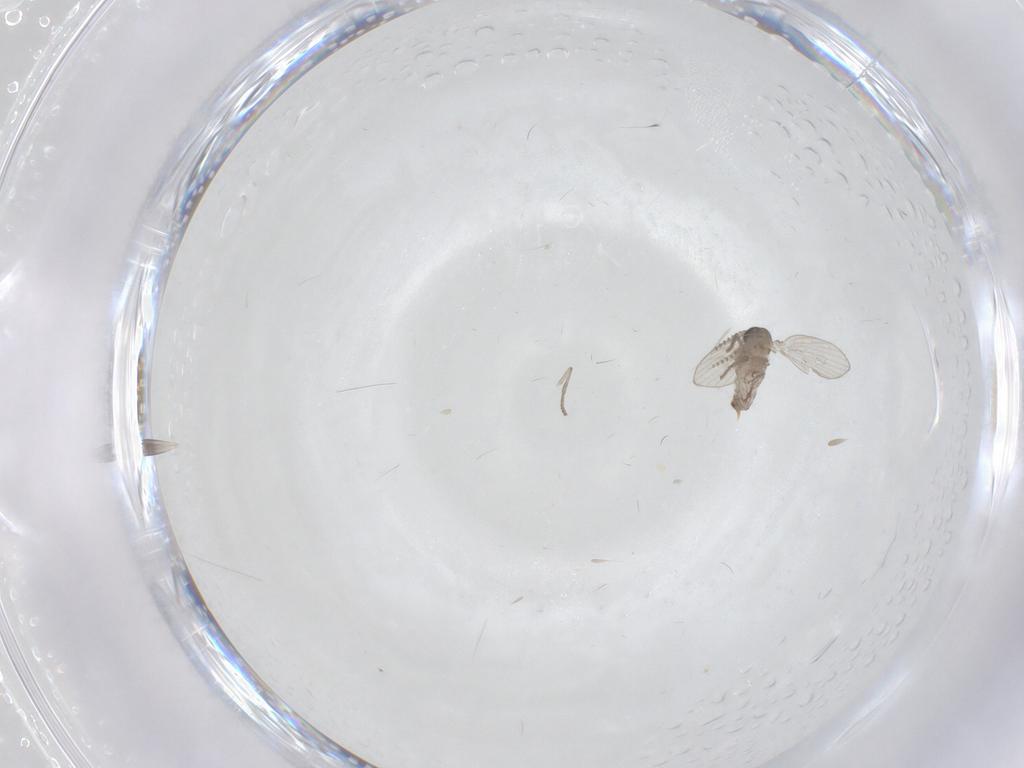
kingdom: Animalia
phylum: Arthropoda
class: Insecta
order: Diptera
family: Psychodidae
